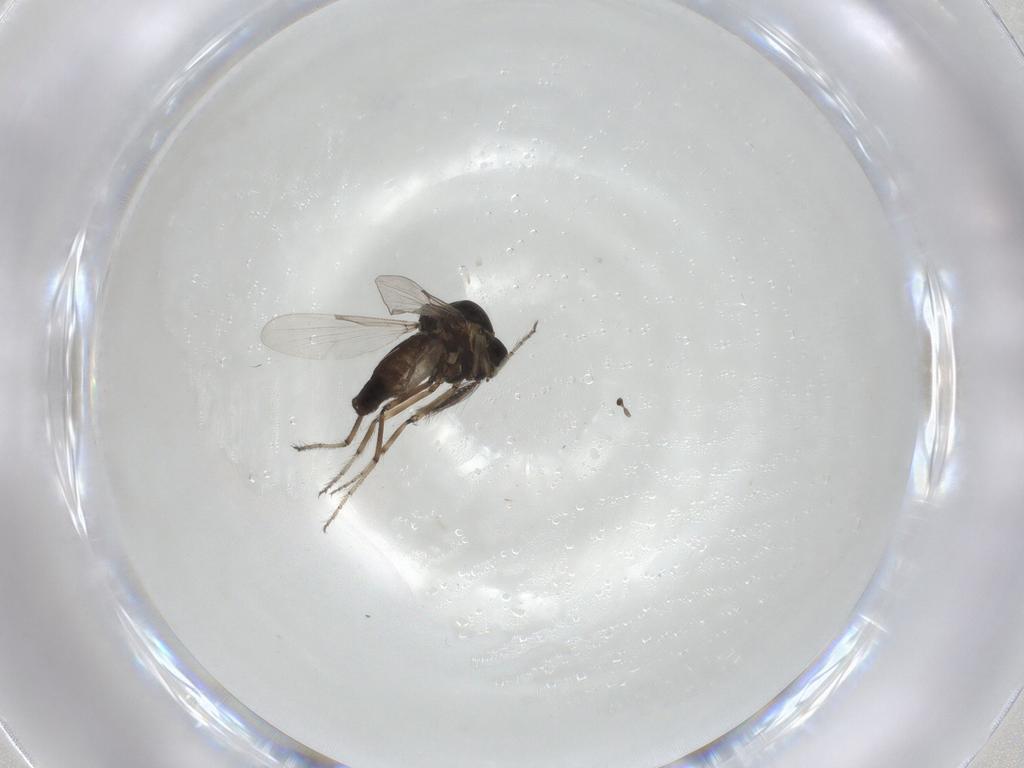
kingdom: Animalia
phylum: Arthropoda
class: Insecta
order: Diptera
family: Ceratopogonidae
